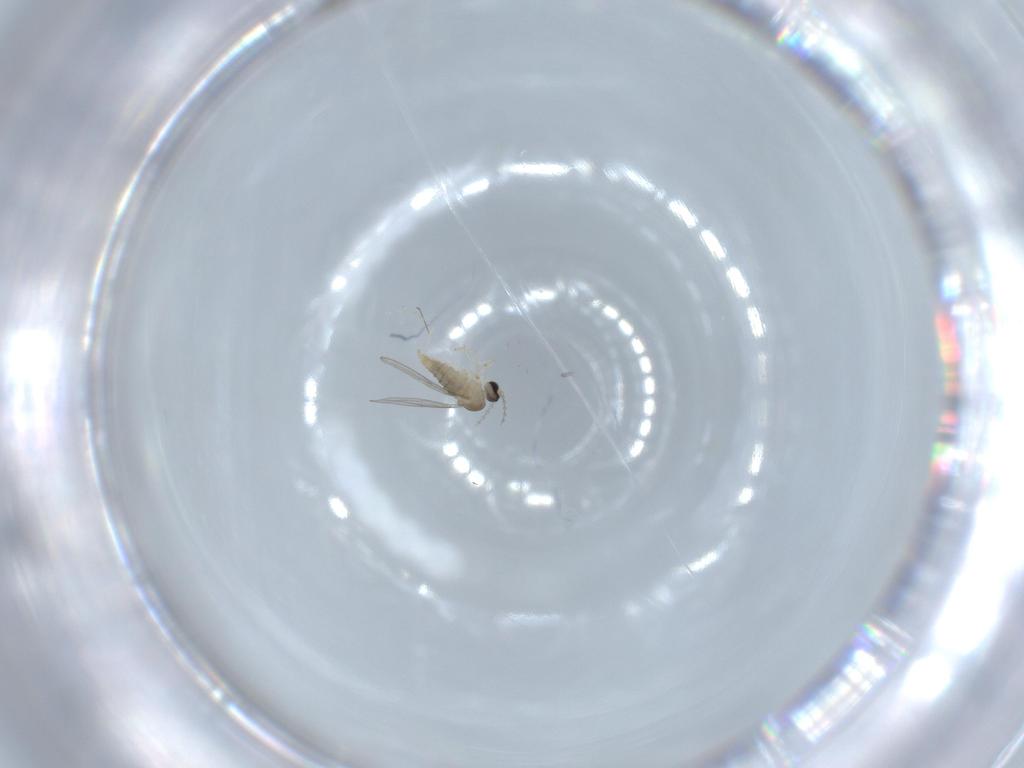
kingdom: Animalia
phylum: Arthropoda
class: Insecta
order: Diptera
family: Cecidomyiidae
